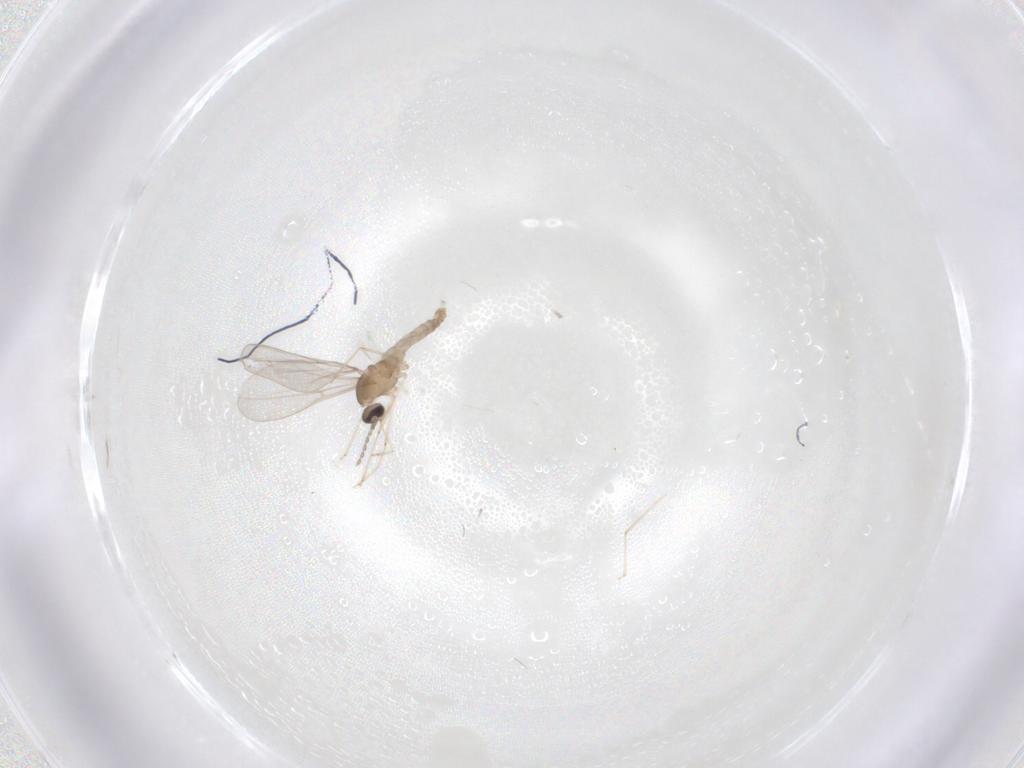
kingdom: Animalia
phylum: Arthropoda
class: Insecta
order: Diptera
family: Cecidomyiidae
